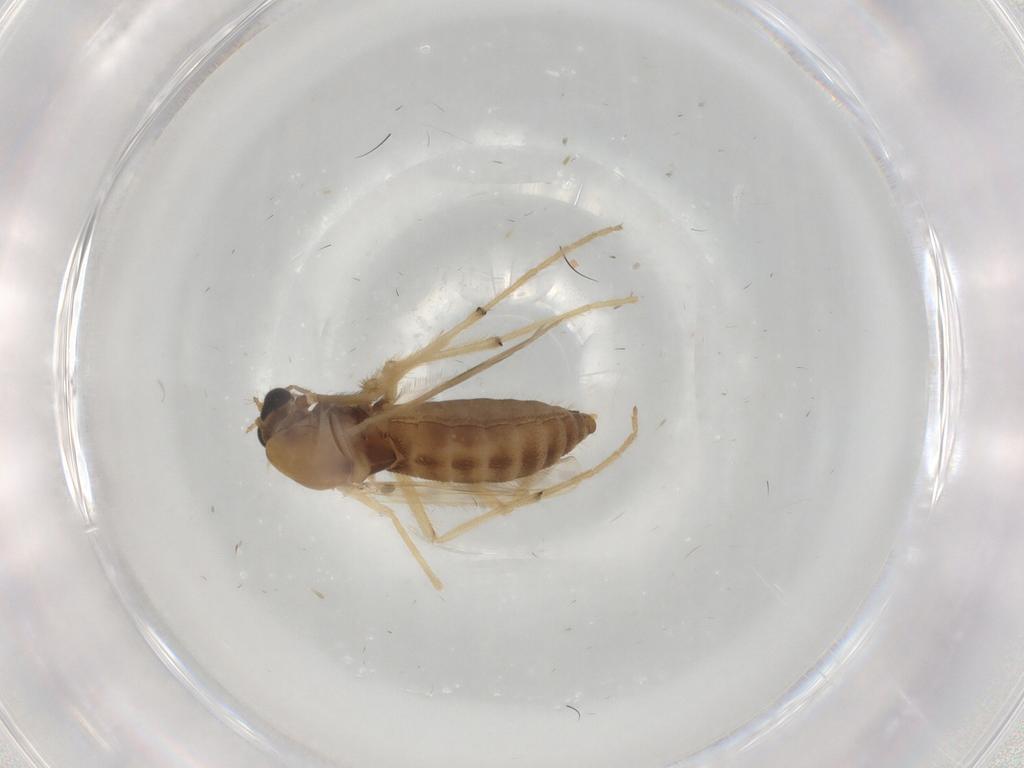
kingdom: Animalia
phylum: Arthropoda
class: Insecta
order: Diptera
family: Chironomidae
